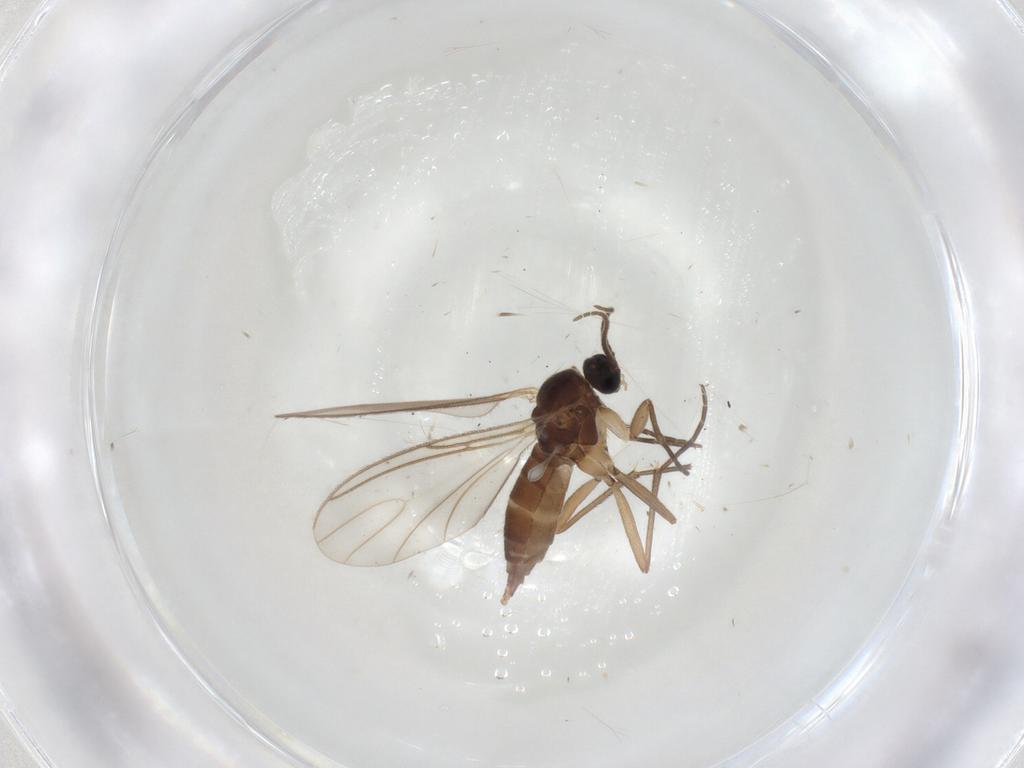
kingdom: Animalia
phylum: Arthropoda
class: Insecta
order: Diptera
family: Sciaridae
